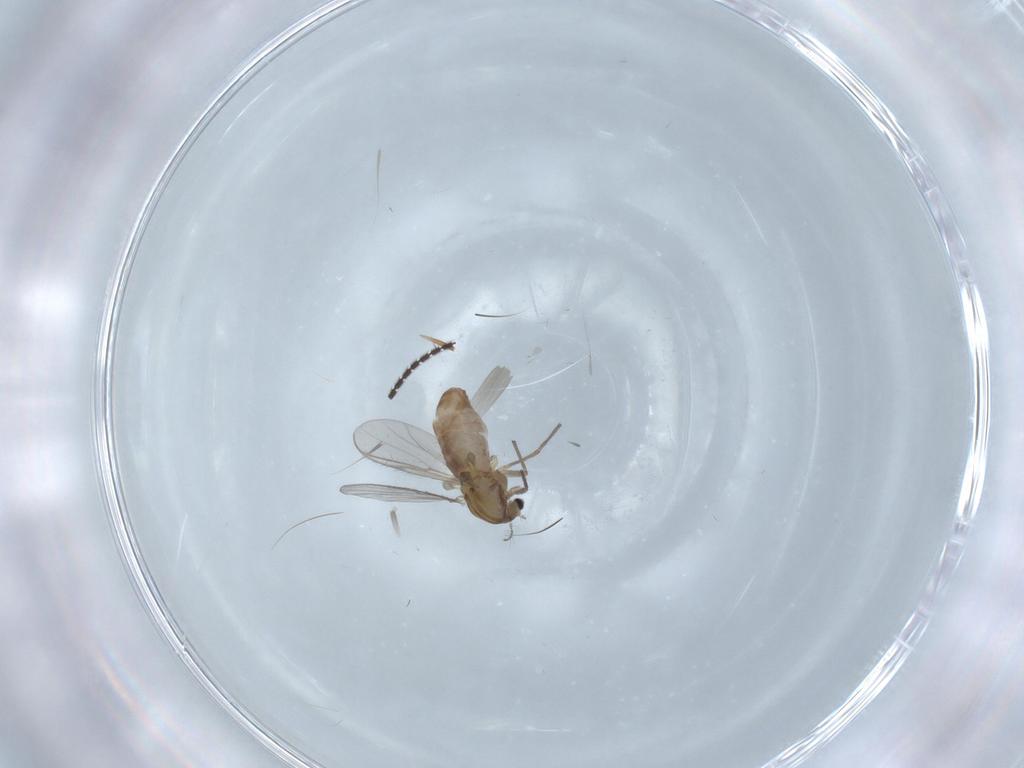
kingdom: Animalia
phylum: Arthropoda
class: Insecta
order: Diptera
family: Chironomidae
